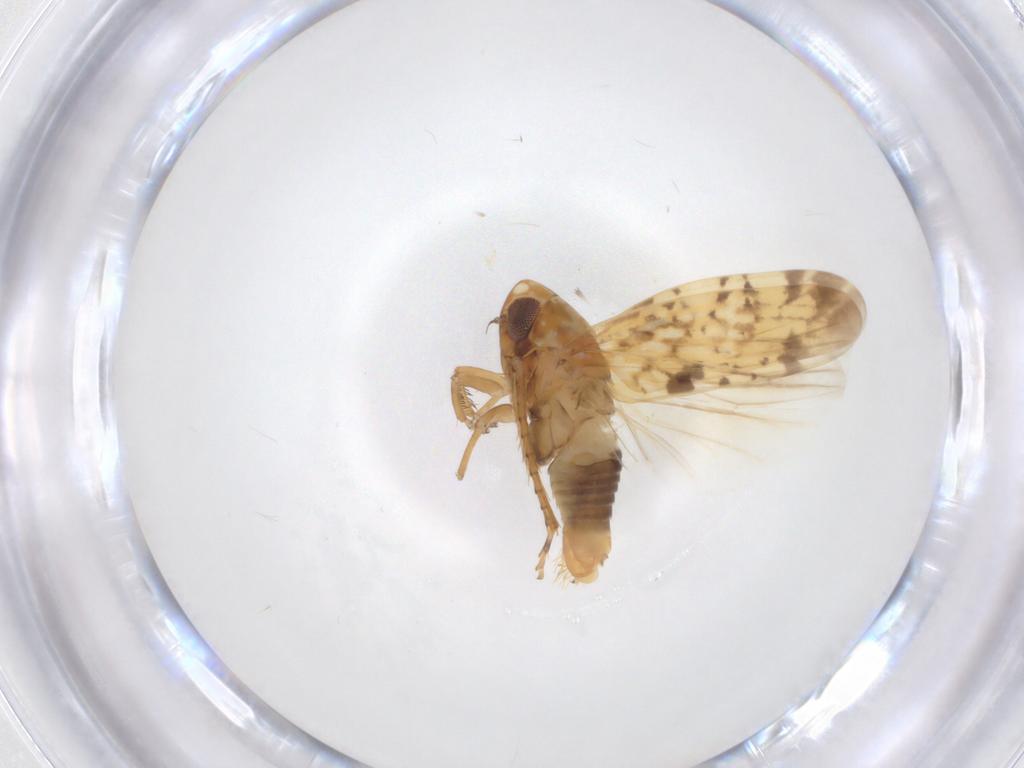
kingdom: Animalia
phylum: Arthropoda
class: Insecta
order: Hemiptera
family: Cicadellidae
